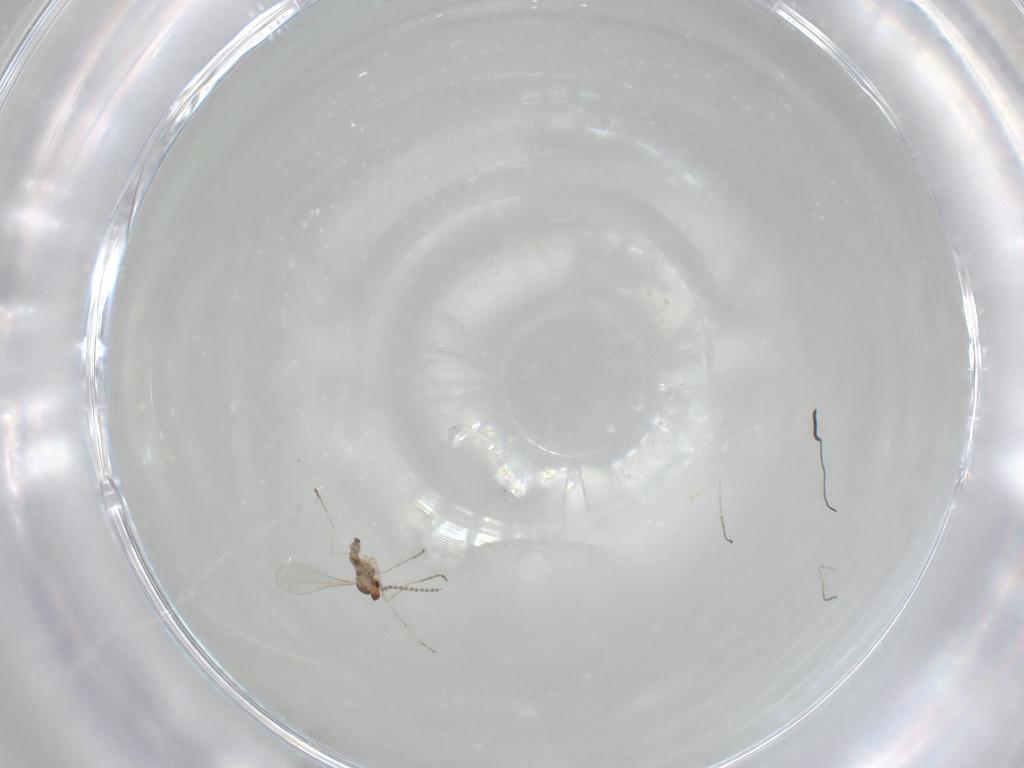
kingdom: Animalia
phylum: Arthropoda
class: Insecta
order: Diptera
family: Cecidomyiidae
